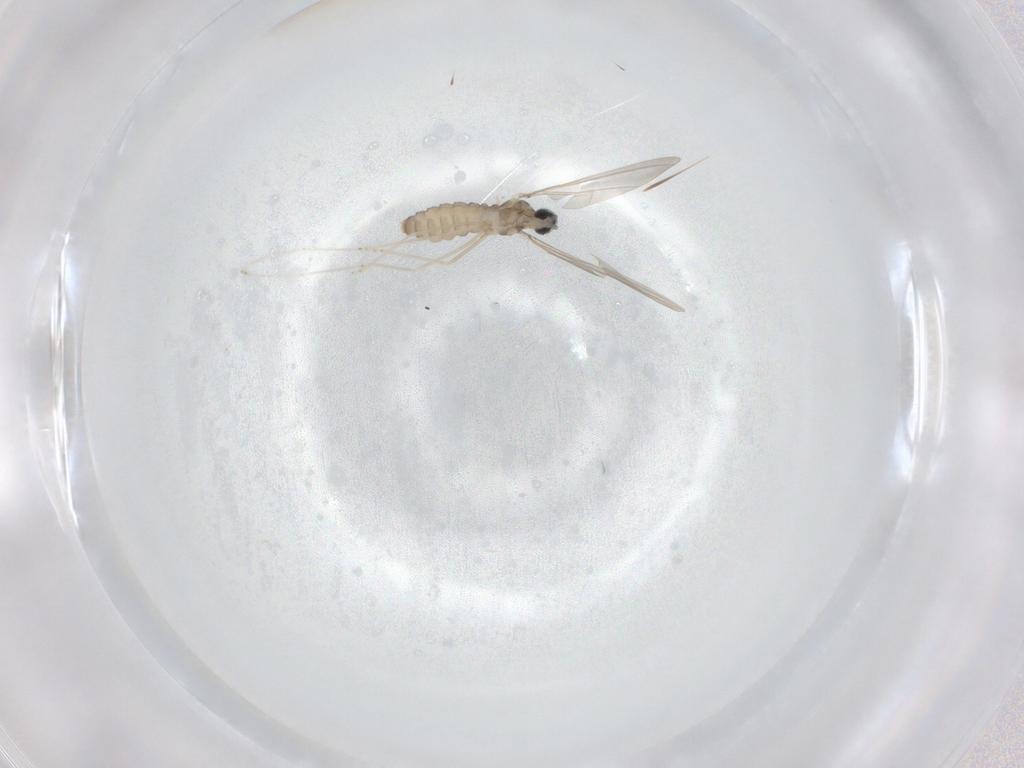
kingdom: Animalia
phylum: Arthropoda
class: Insecta
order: Diptera
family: Cecidomyiidae
